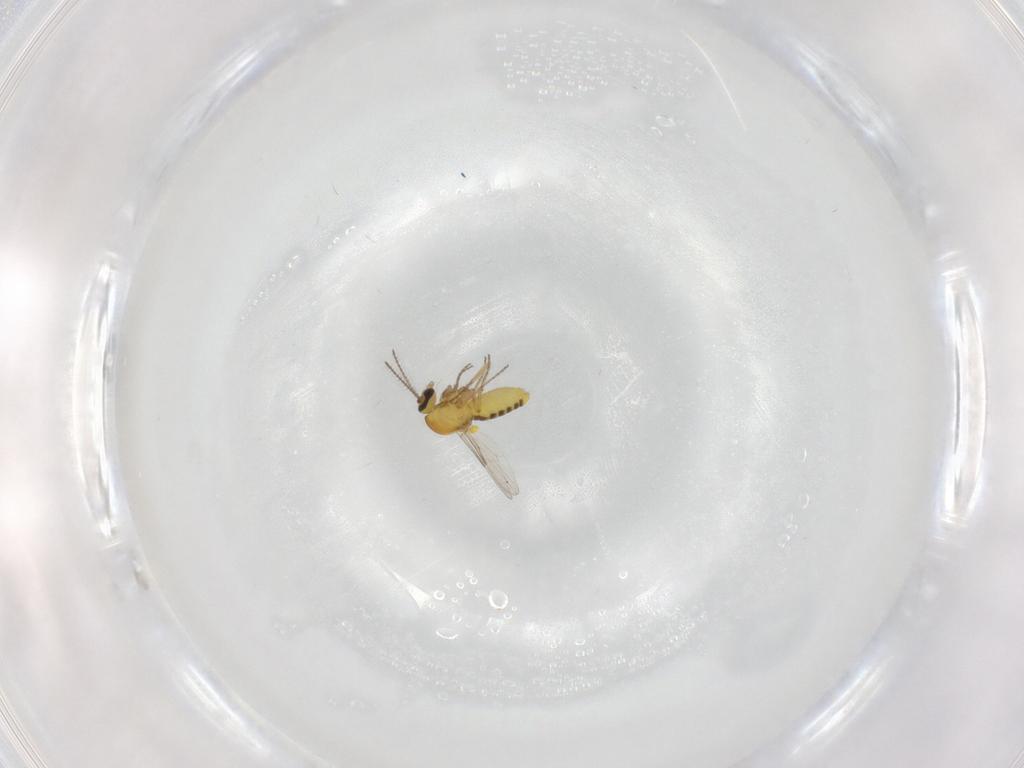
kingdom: Animalia
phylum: Arthropoda
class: Insecta
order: Diptera
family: Ceratopogonidae
